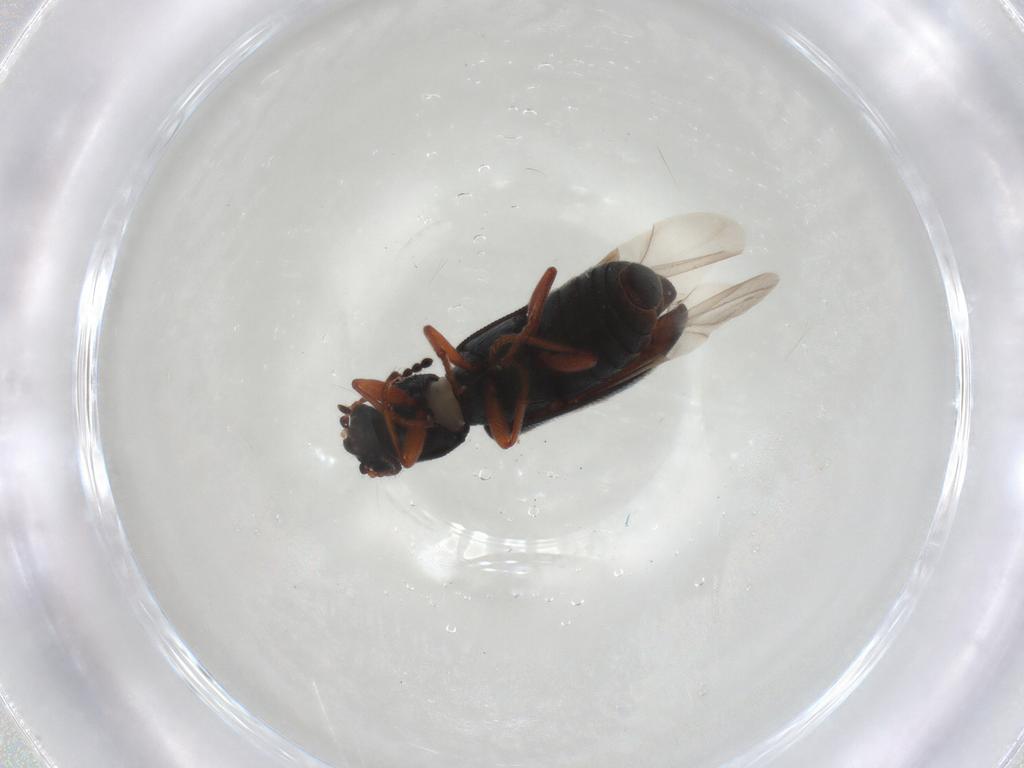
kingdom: Animalia
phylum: Arthropoda
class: Insecta
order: Coleoptera
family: Melyridae
